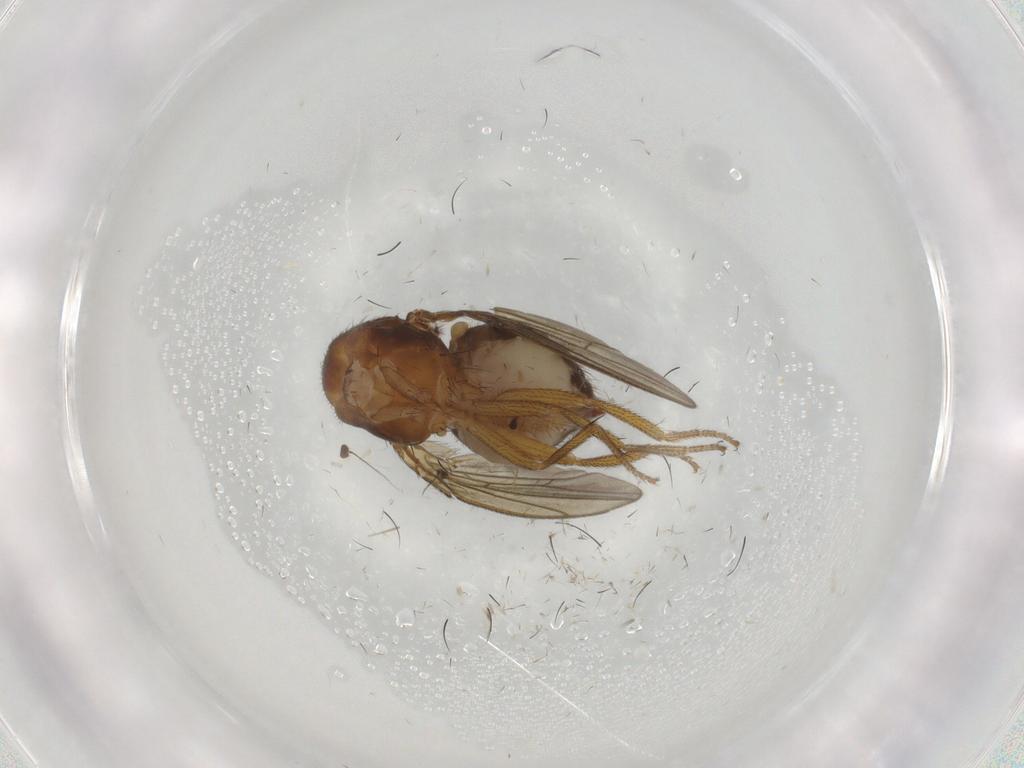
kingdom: Animalia
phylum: Arthropoda
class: Insecta
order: Diptera
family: Drosophilidae
